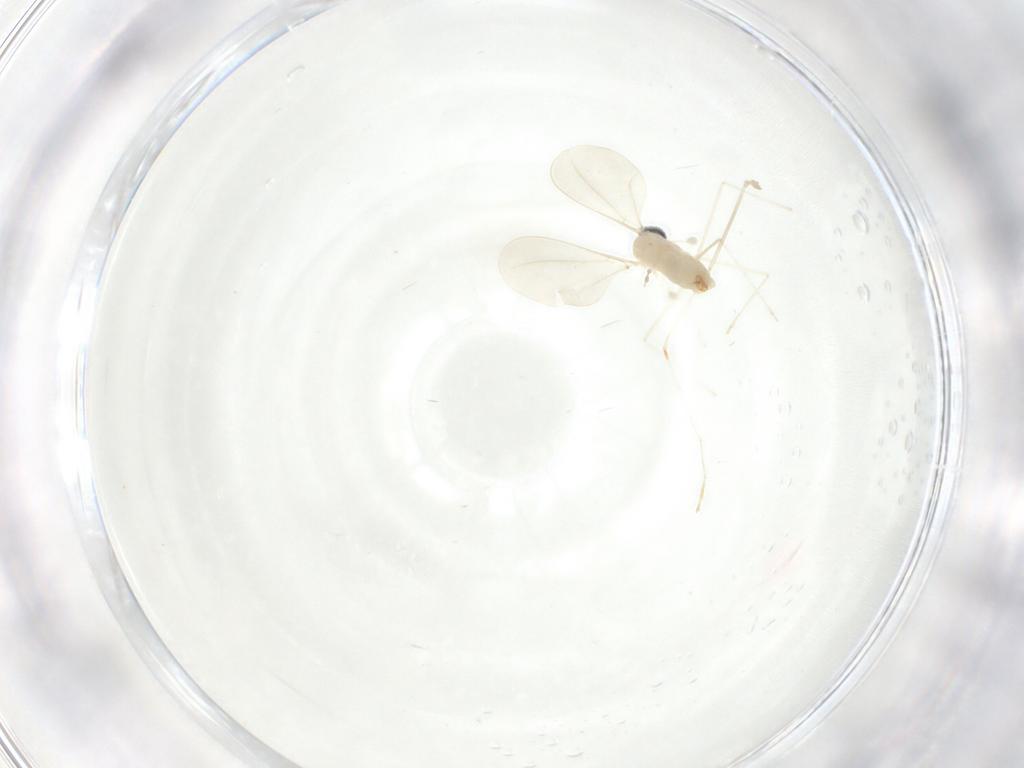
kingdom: Animalia
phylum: Arthropoda
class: Insecta
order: Diptera
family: Cecidomyiidae
